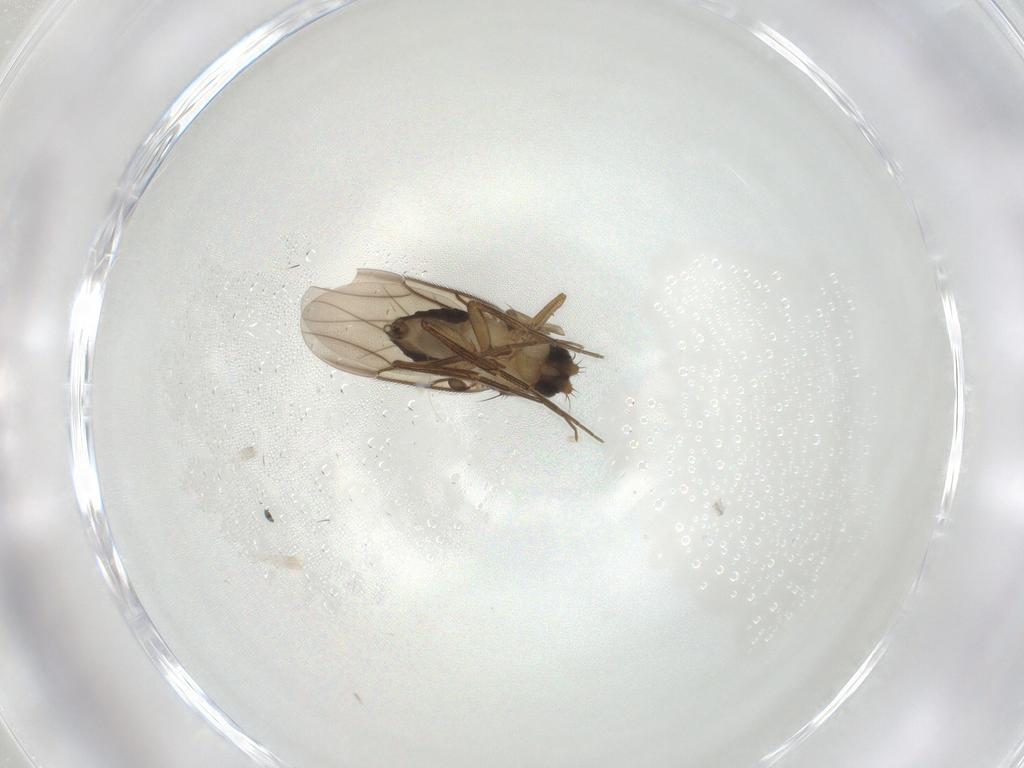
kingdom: Animalia
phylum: Arthropoda
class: Insecta
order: Diptera
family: Phoridae
